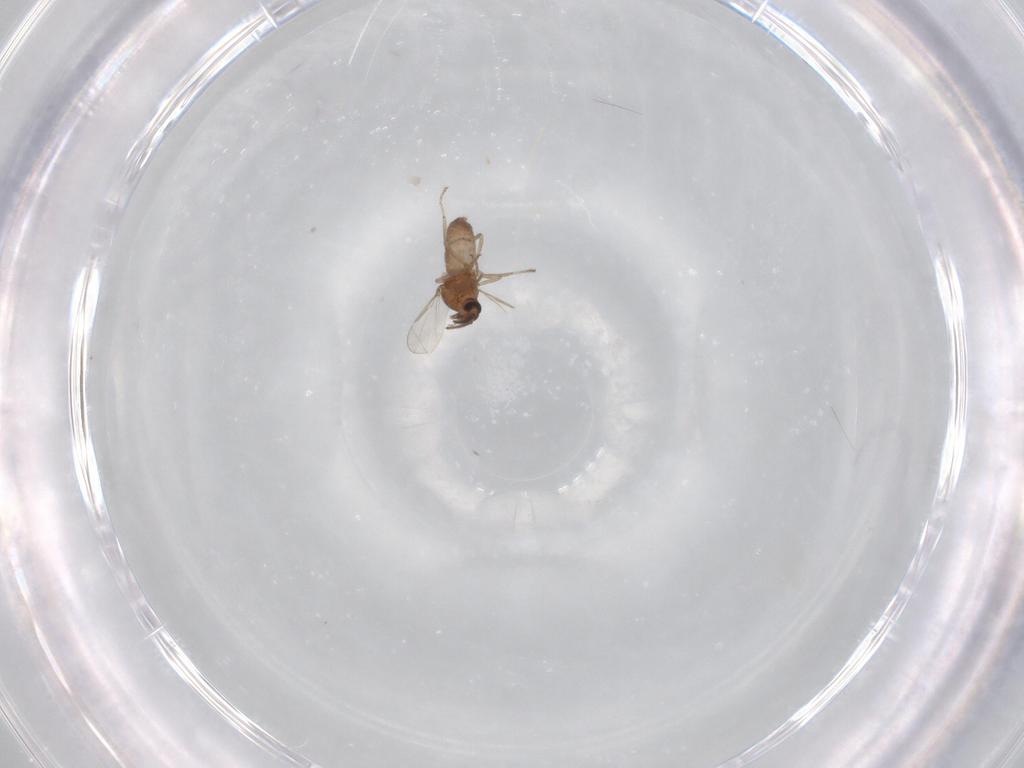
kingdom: Animalia
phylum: Arthropoda
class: Insecta
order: Diptera
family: Ceratopogonidae
